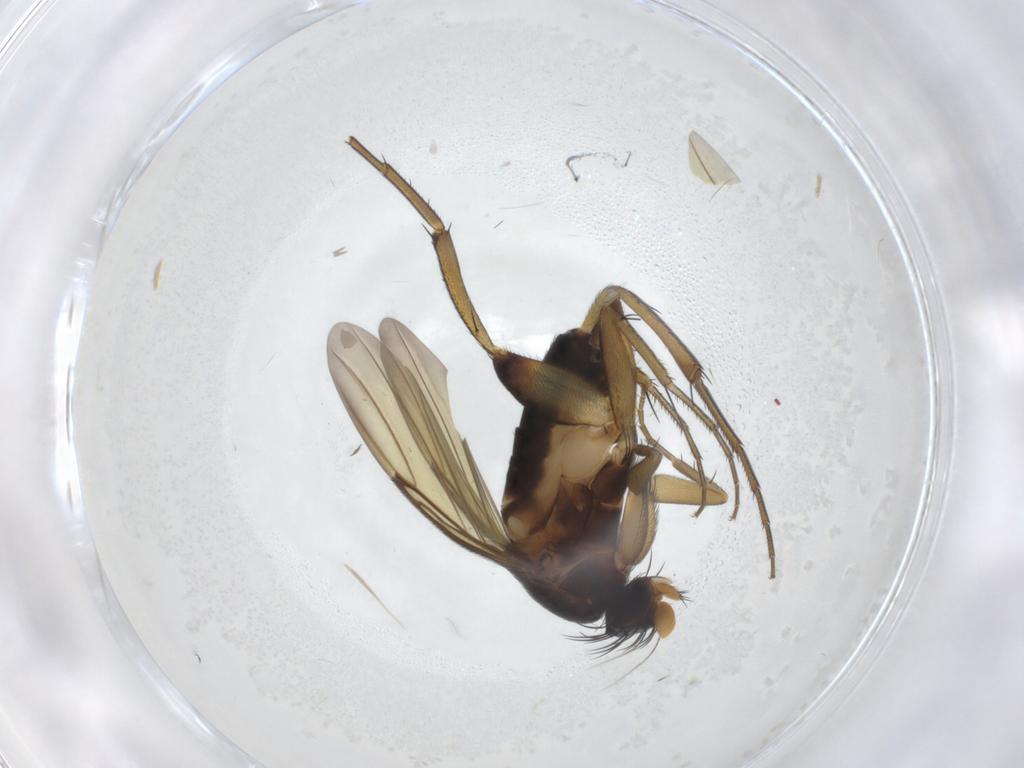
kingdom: Animalia
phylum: Arthropoda
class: Insecta
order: Diptera
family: Phoridae
